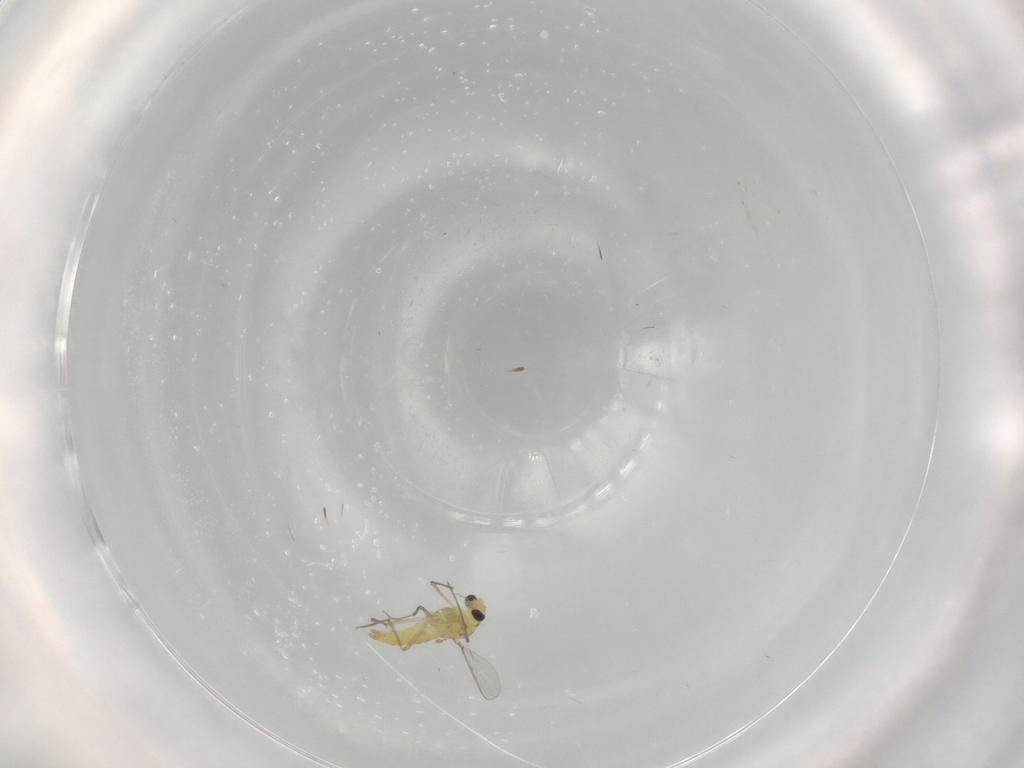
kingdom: Animalia
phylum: Arthropoda
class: Insecta
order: Diptera
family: Chironomidae
